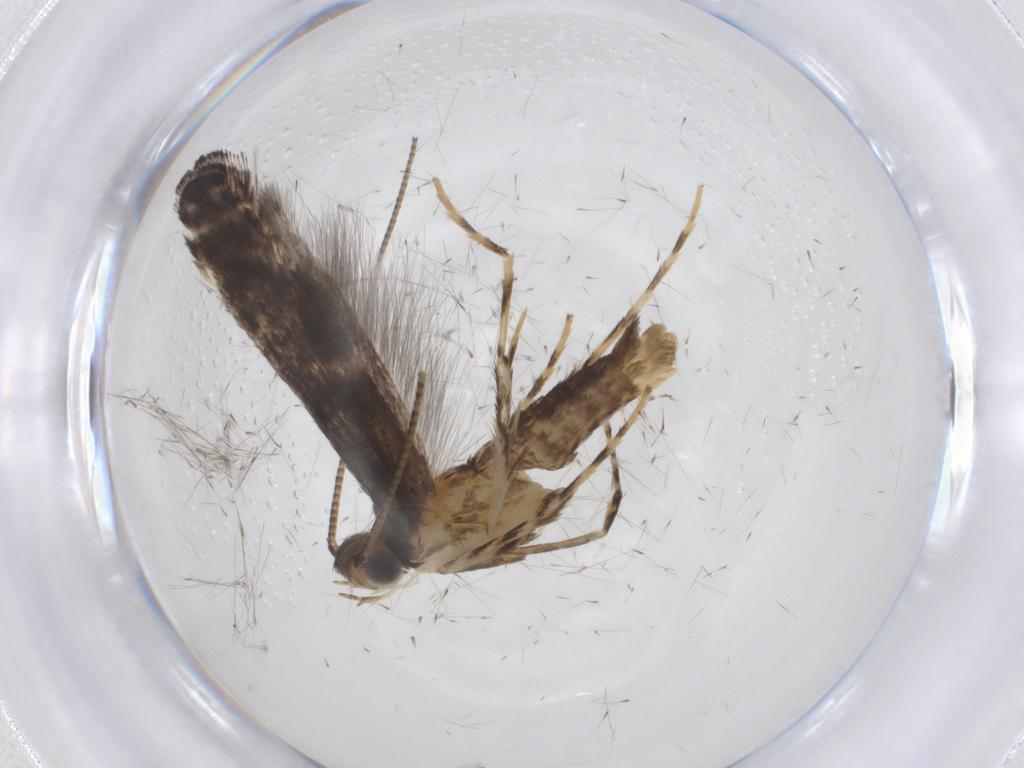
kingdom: Animalia
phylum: Arthropoda
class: Insecta
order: Lepidoptera
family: Gracillariidae
